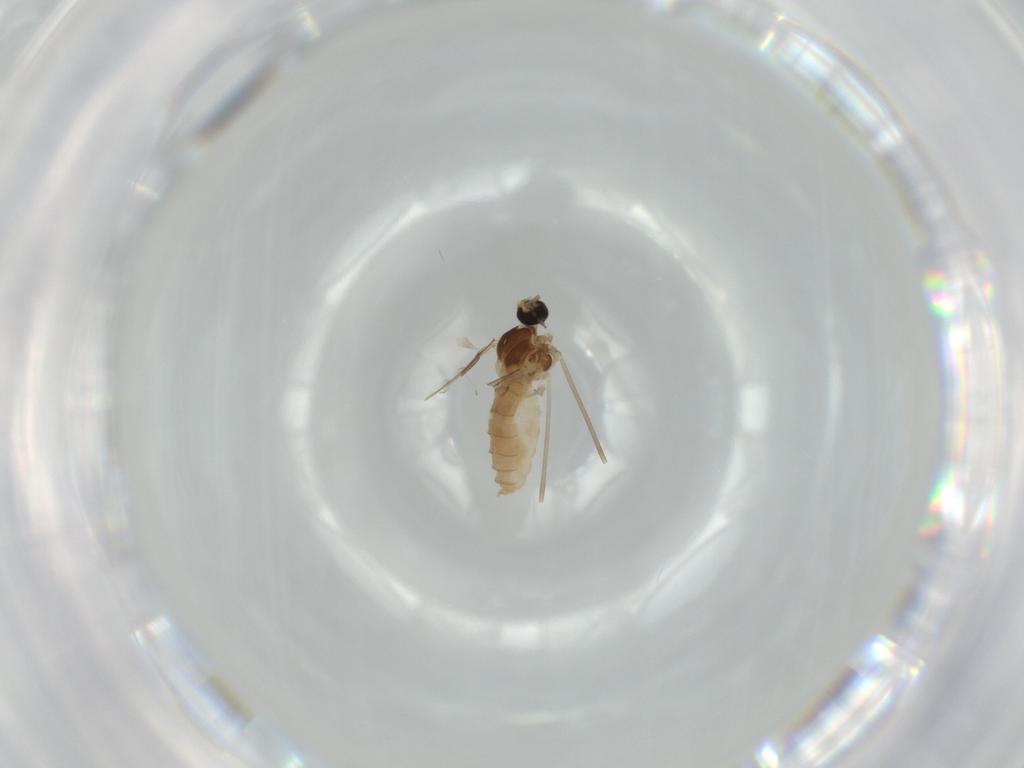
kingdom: Animalia
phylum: Arthropoda
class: Insecta
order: Diptera
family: Cecidomyiidae
